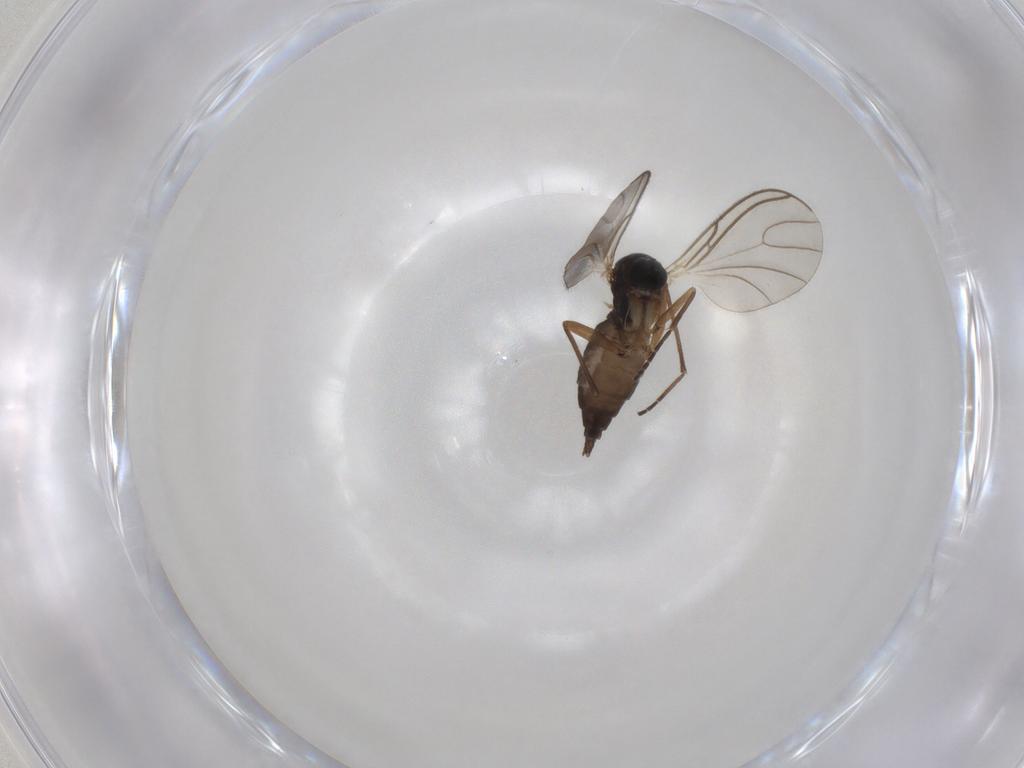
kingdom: Animalia
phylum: Arthropoda
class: Insecta
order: Diptera
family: Sciaridae
